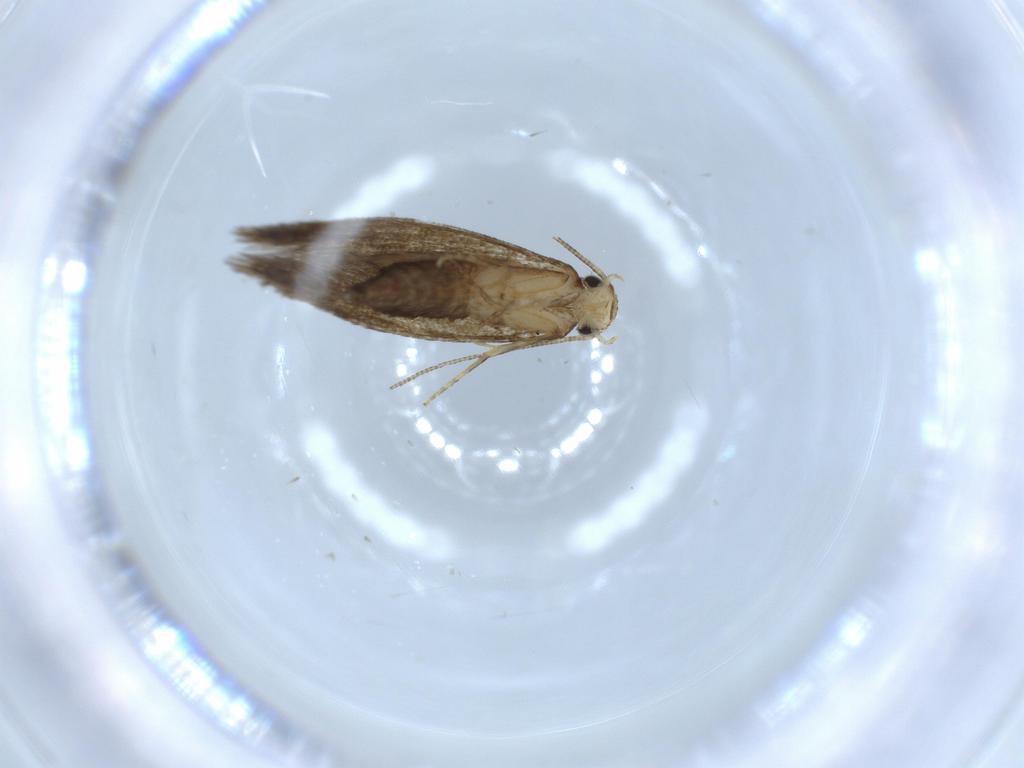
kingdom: Animalia
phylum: Arthropoda
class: Insecta
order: Lepidoptera
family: Tineidae
